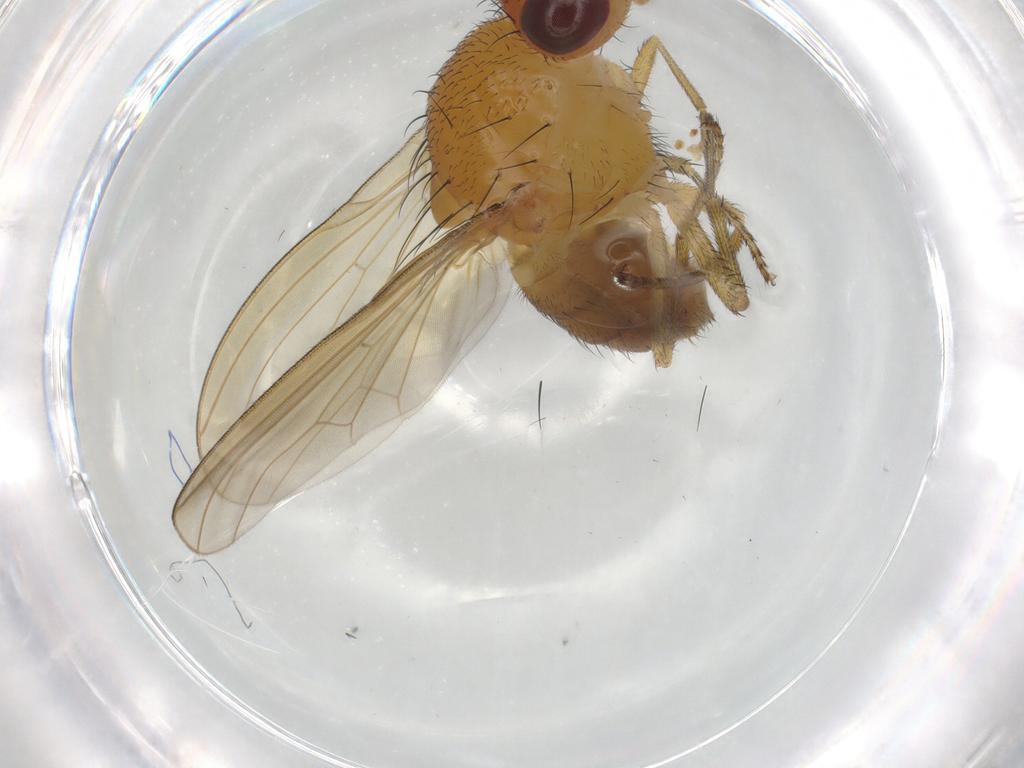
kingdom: Animalia
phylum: Arthropoda
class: Insecta
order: Diptera
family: Lauxaniidae
